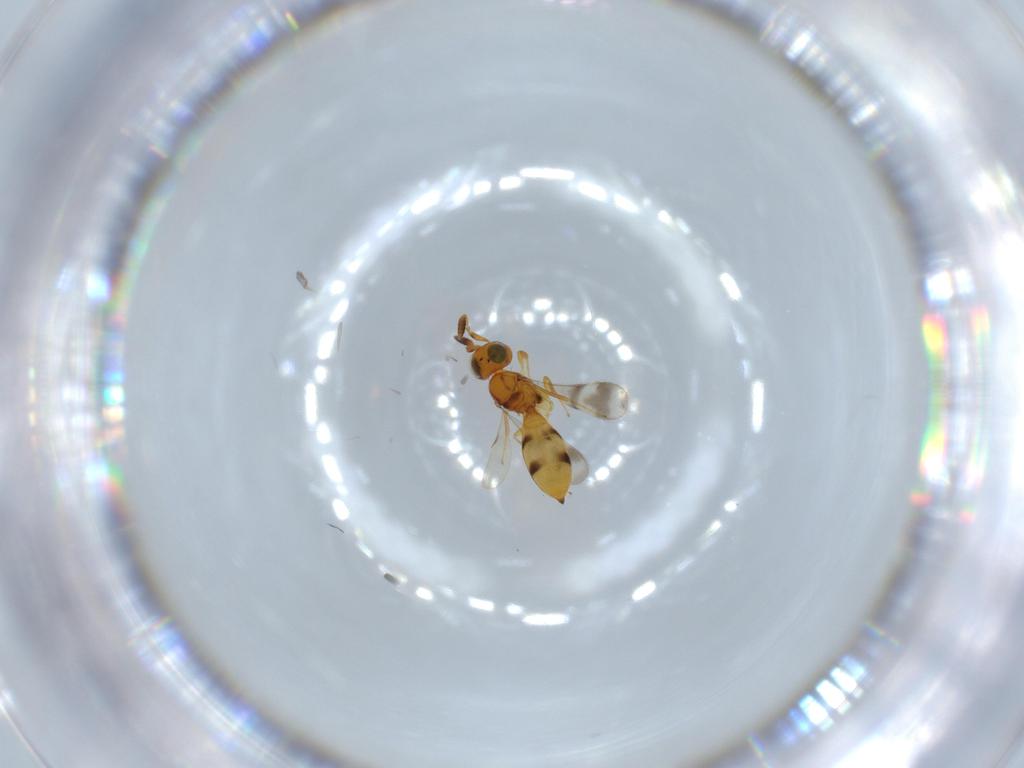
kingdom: Animalia
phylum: Arthropoda
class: Insecta
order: Hymenoptera
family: Scelionidae
